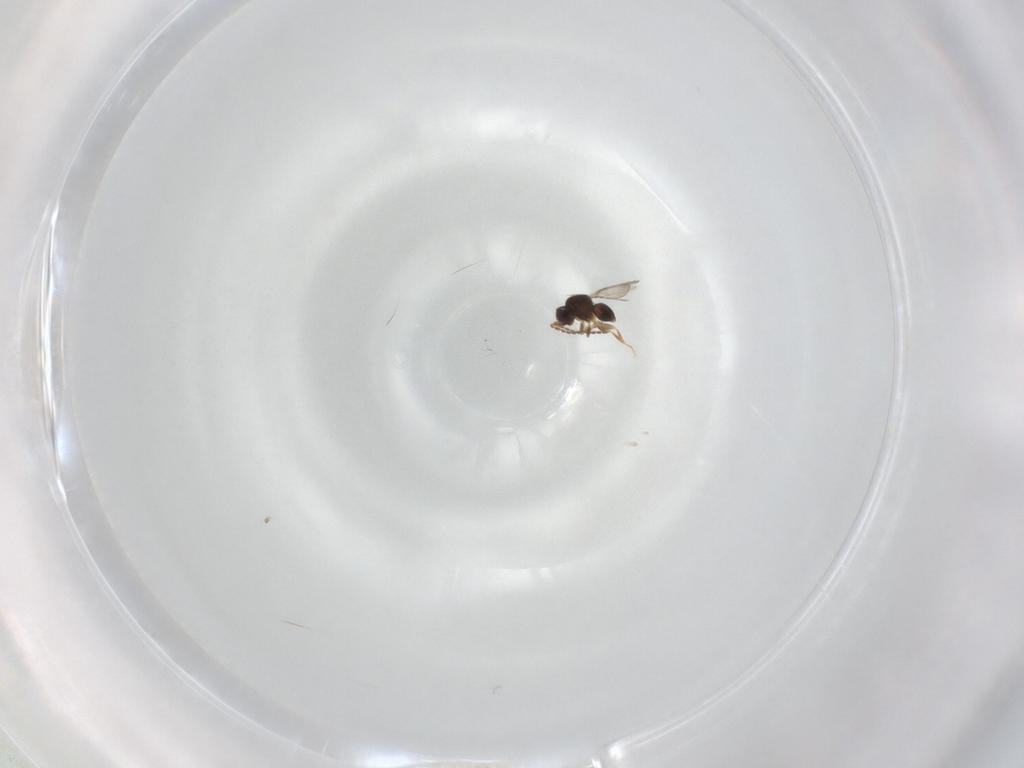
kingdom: Animalia
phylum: Arthropoda
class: Insecta
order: Hymenoptera
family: Ceraphronidae
